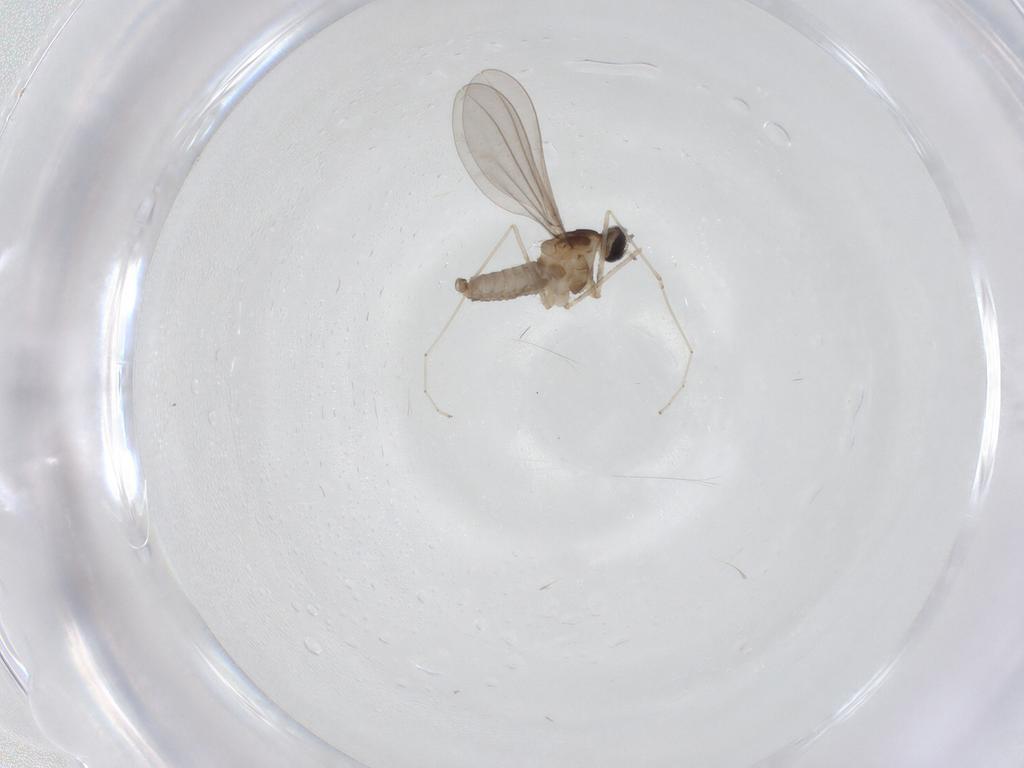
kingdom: Animalia
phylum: Arthropoda
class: Insecta
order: Diptera
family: Cecidomyiidae
